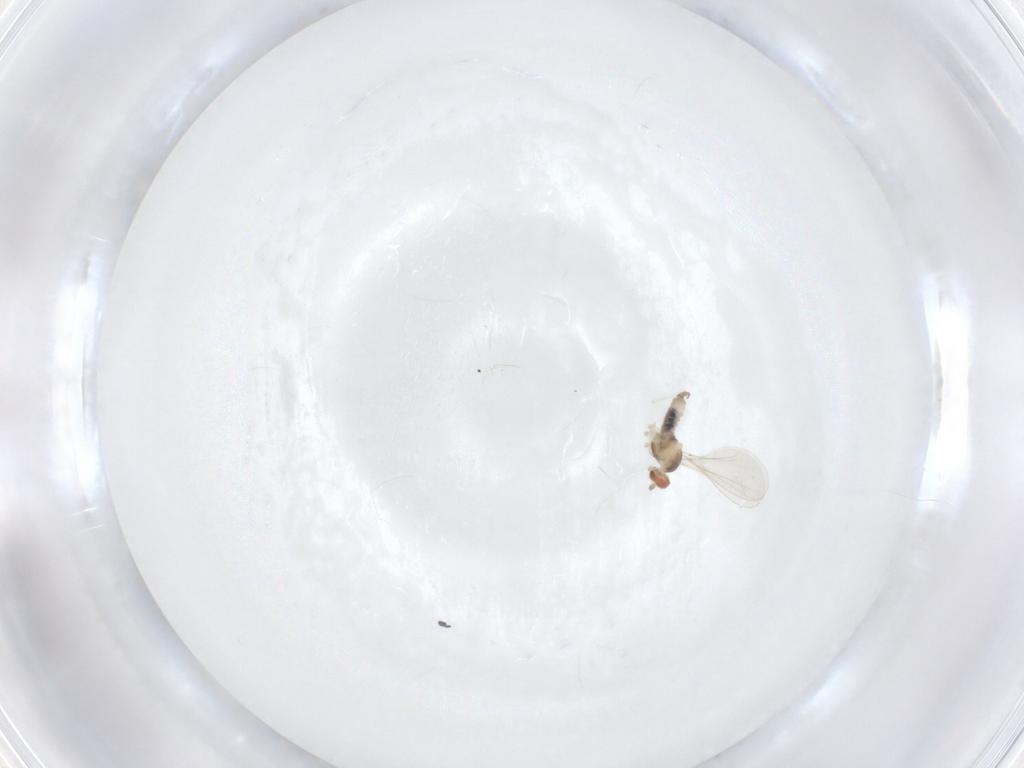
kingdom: Animalia
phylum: Arthropoda
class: Insecta
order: Diptera
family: Cecidomyiidae
